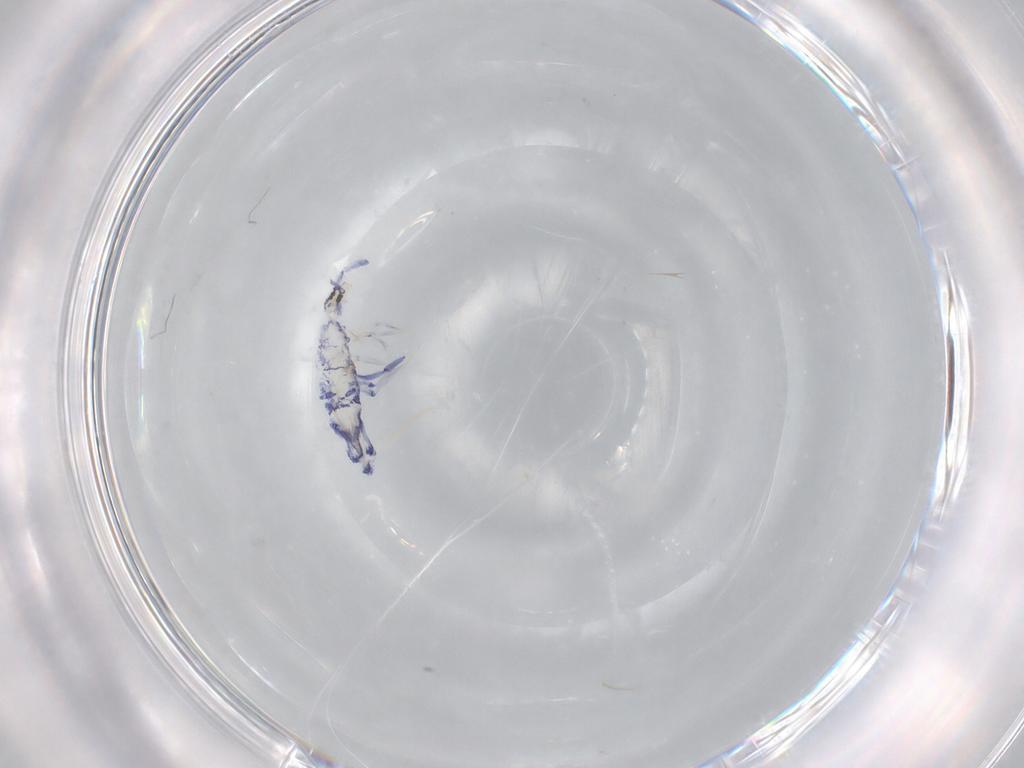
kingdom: Animalia
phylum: Arthropoda
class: Collembola
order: Entomobryomorpha
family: Entomobryidae
